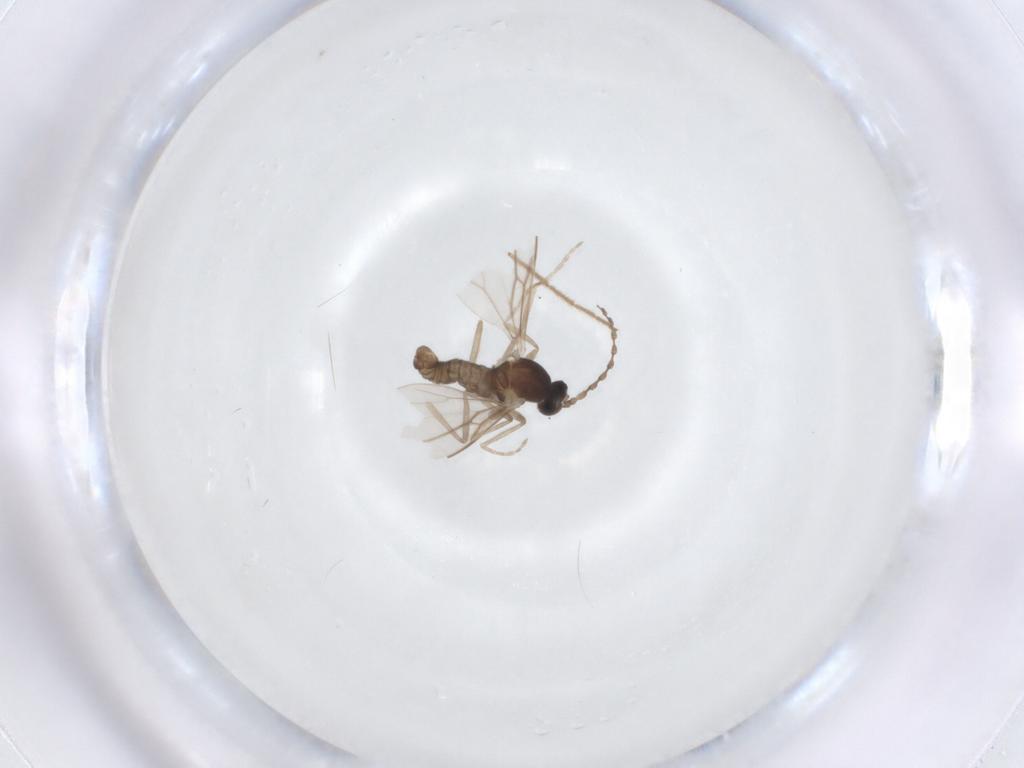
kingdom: Animalia
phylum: Arthropoda
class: Insecta
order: Diptera
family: Cecidomyiidae
